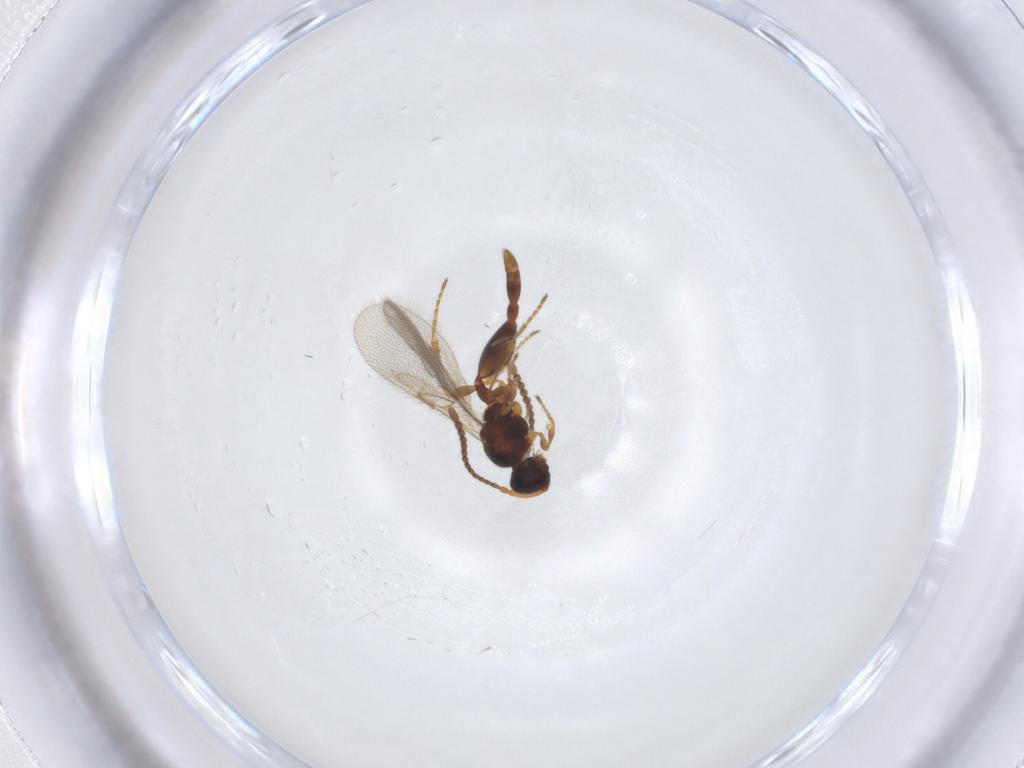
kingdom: Animalia
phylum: Arthropoda
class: Insecta
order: Hymenoptera
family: Diapriidae
